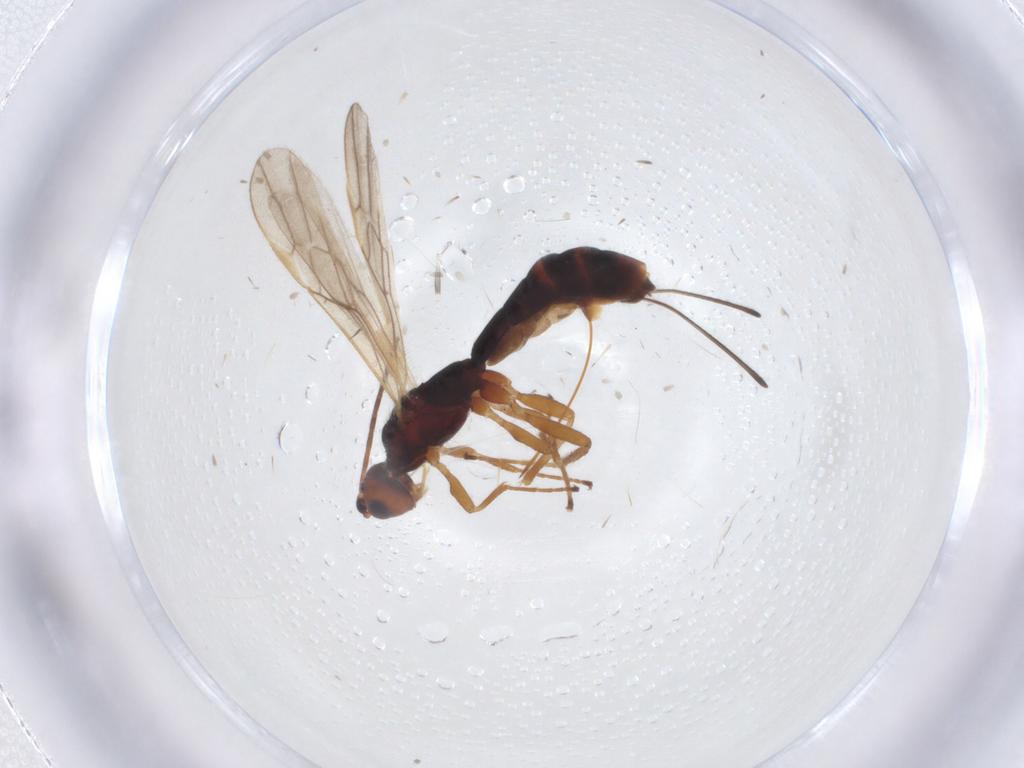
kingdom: Animalia
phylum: Arthropoda
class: Insecta
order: Hymenoptera
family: Braconidae
